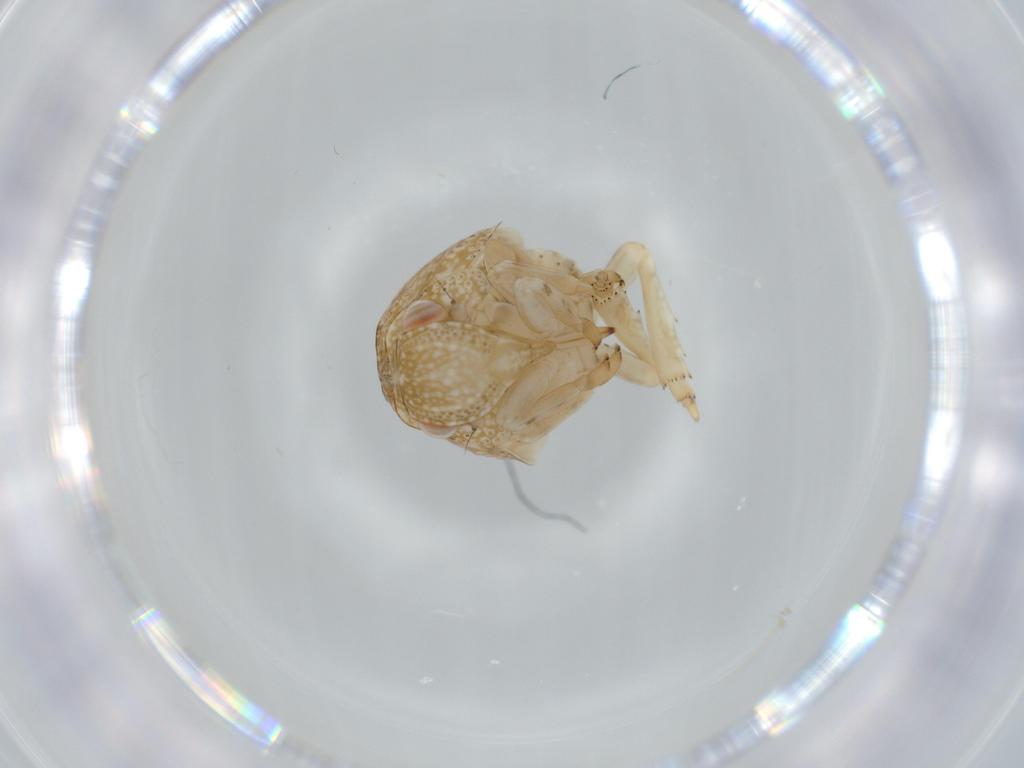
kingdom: Animalia
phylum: Arthropoda
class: Insecta
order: Hemiptera
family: Acanaloniidae
